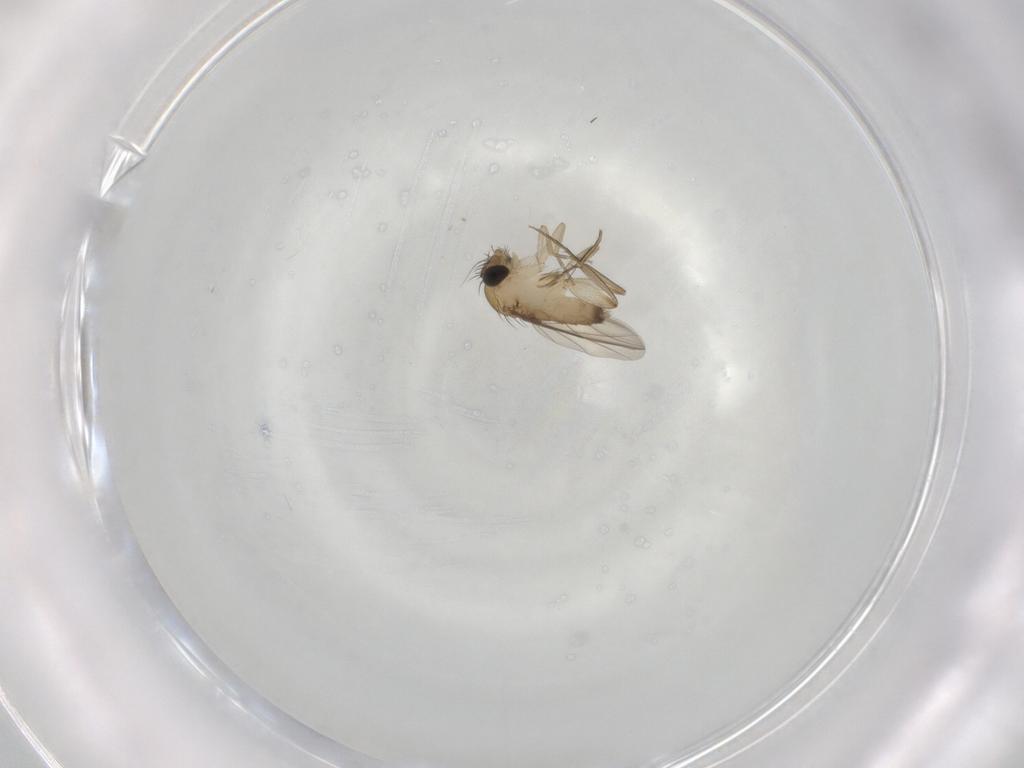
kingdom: Animalia
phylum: Arthropoda
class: Insecta
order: Diptera
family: Phoridae
